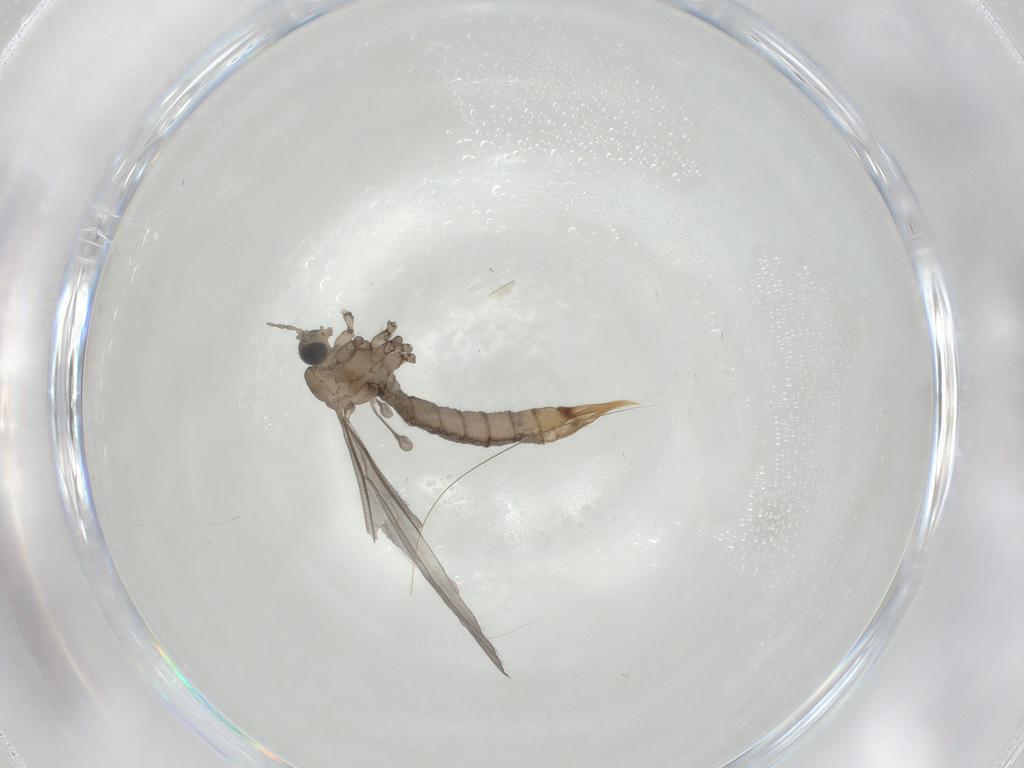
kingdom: Animalia
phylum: Arthropoda
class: Insecta
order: Diptera
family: Limoniidae
